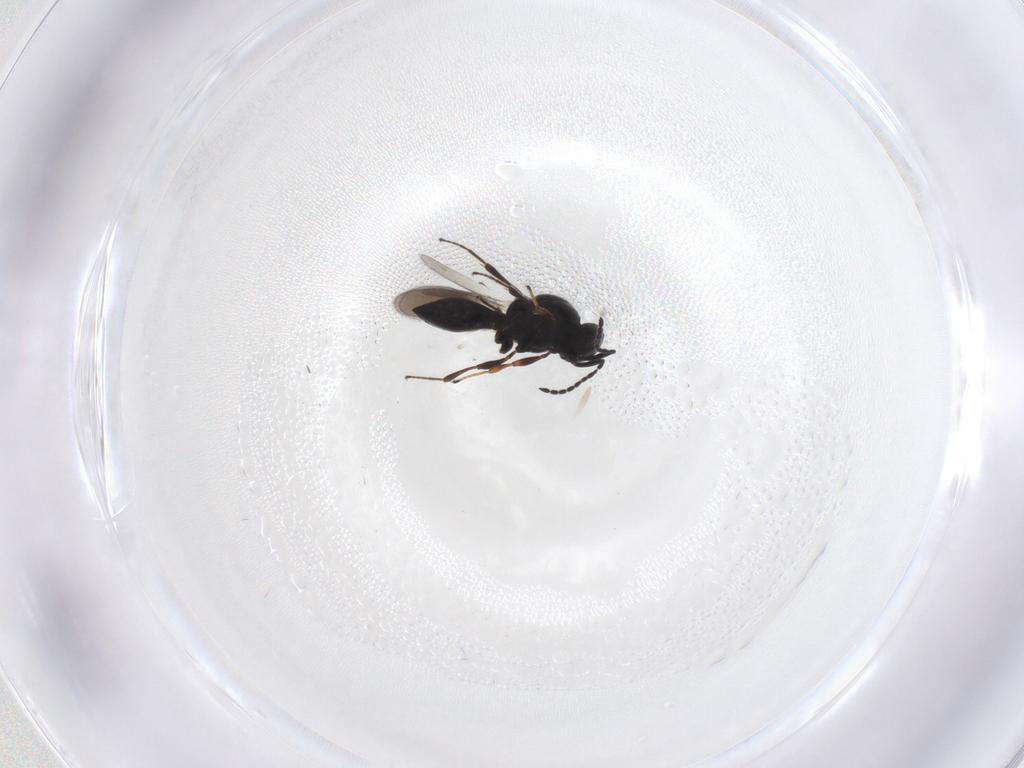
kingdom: Animalia
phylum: Arthropoda
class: Insecta
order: Hymenoptera
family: Platygastridae
